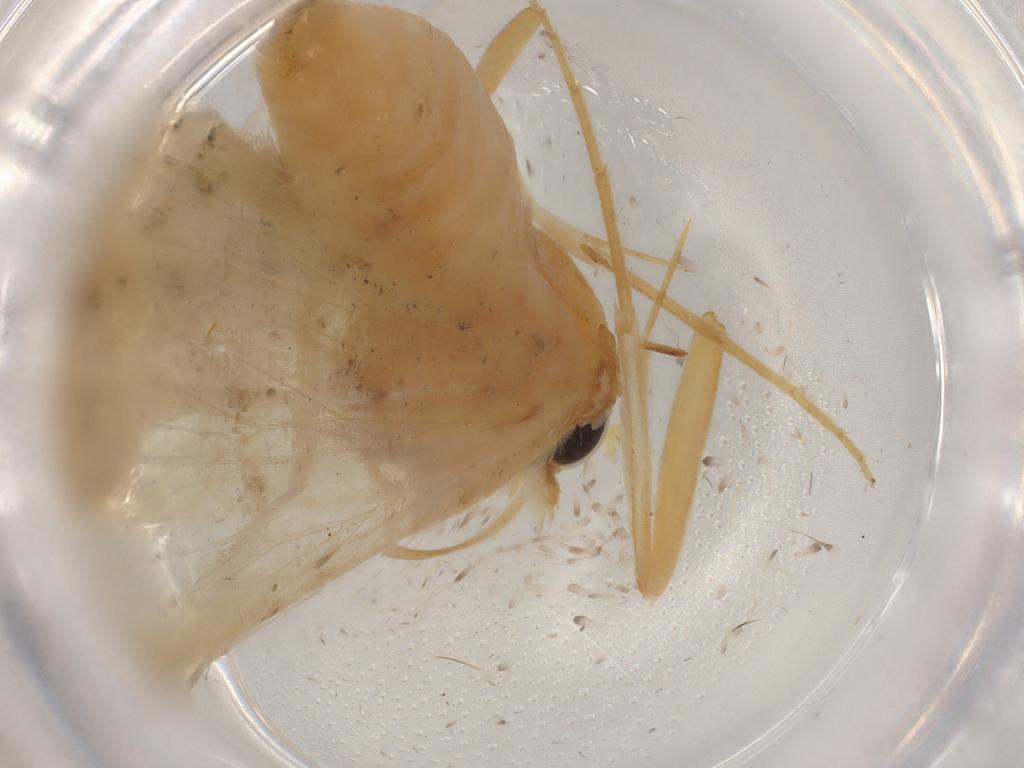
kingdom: Animalia
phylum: Arthropoda
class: Insecta
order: Lepidoptera
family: Crambidae
